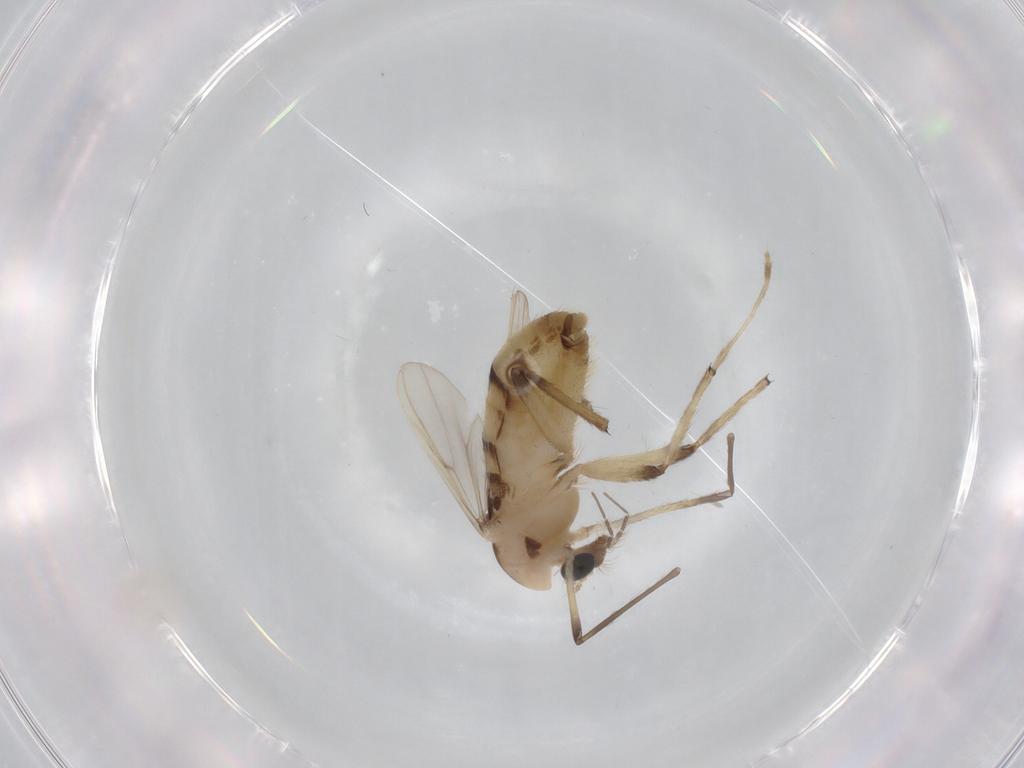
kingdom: Animalia
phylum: Arthropoda
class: Insecta
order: Diptera
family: Chironomidae
